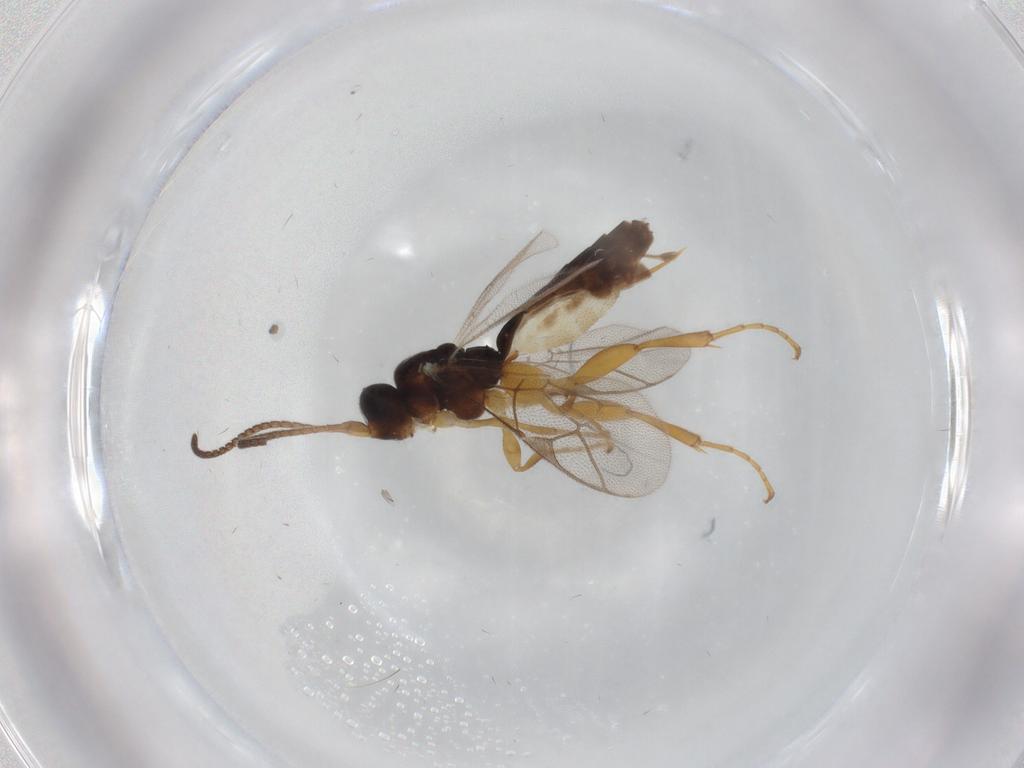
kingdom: Animalia
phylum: Arthropoda
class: Insecta
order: Hymenoptera
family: Ichneumonidae
